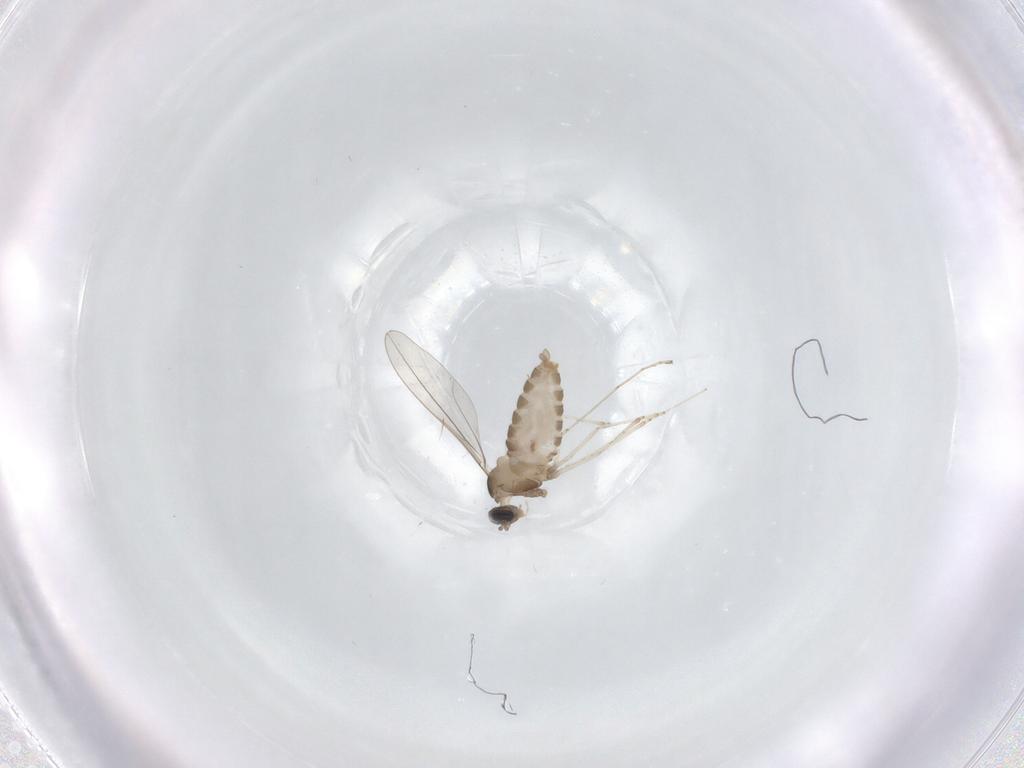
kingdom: Animalia
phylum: Arthropoda
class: Insecta
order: Diptera
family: Cecidomyiidae
